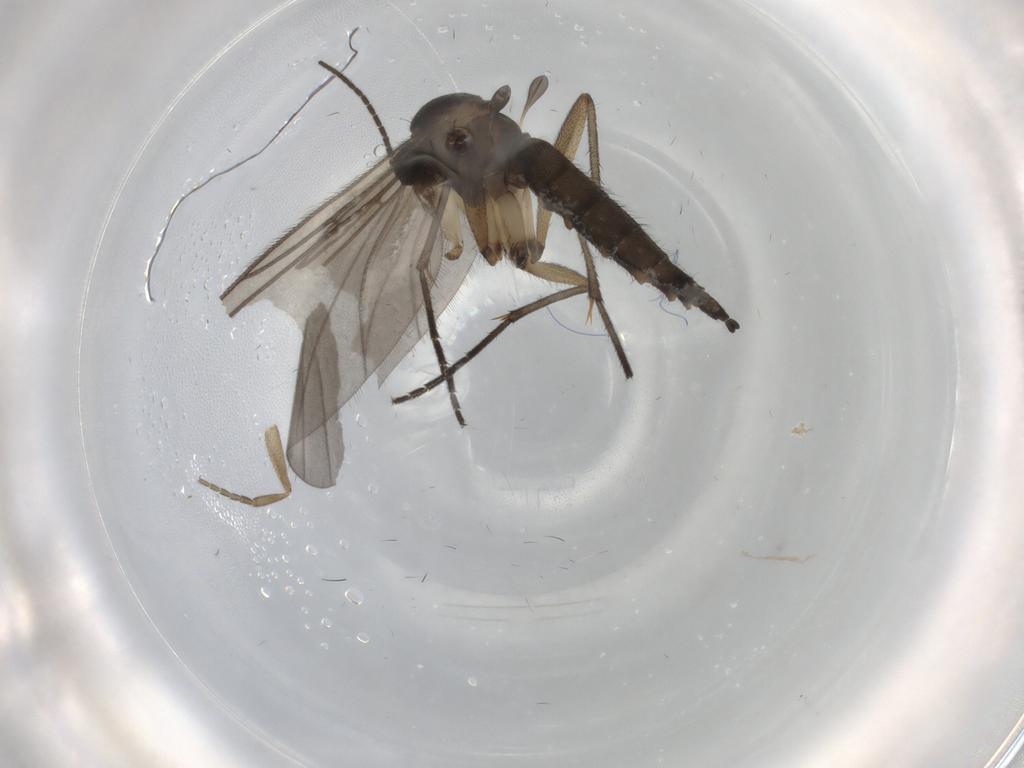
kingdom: Animalia
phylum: Arthropoda
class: Insecta
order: Diptera
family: Sciaridae
